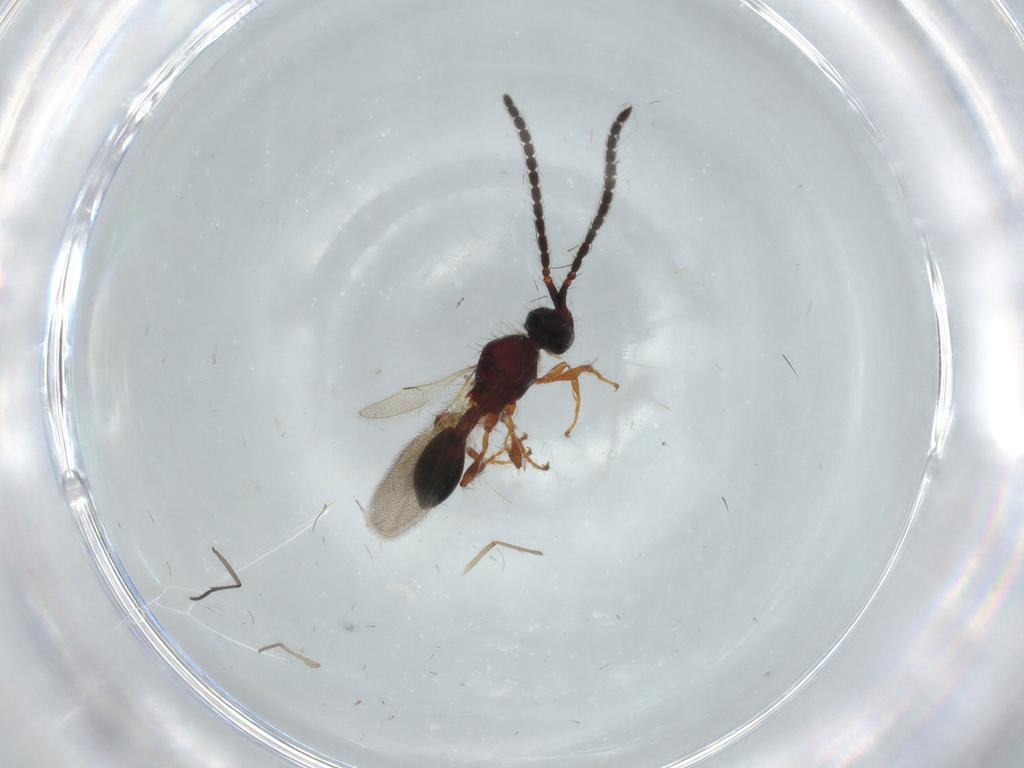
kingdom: Animalia
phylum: Arthropoda
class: Insecta
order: Hymenoptera
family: Diapriidae
